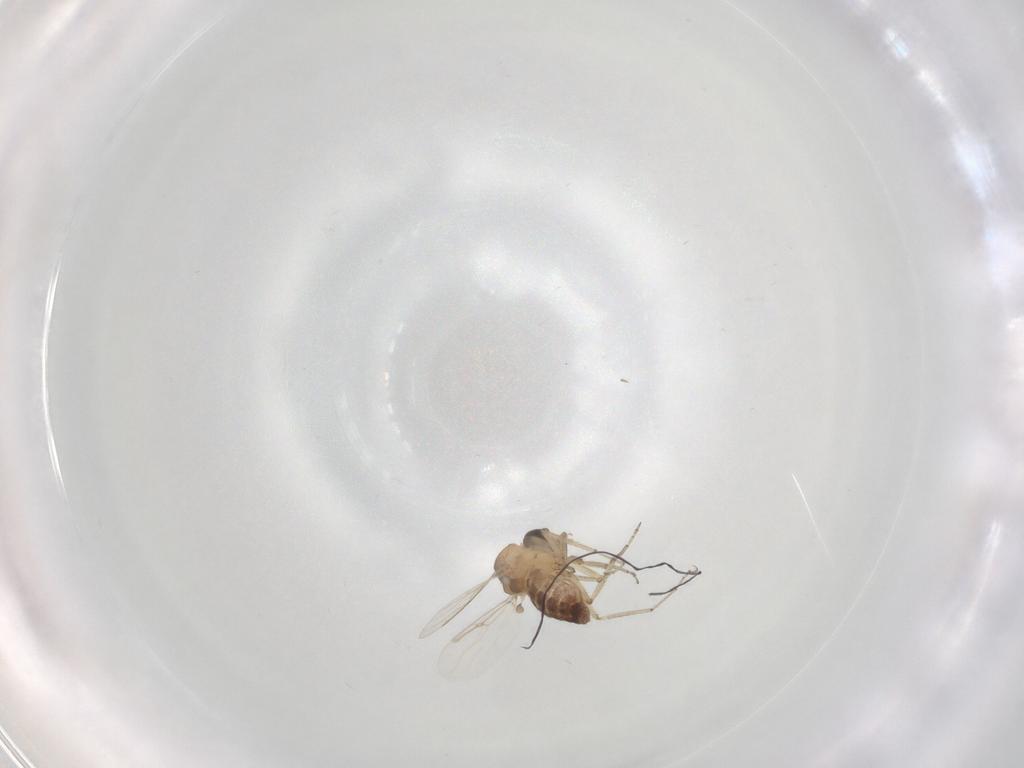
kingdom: Animalia
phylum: Arthropoda
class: Insecta
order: Diptera
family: Ceratopogonidae
